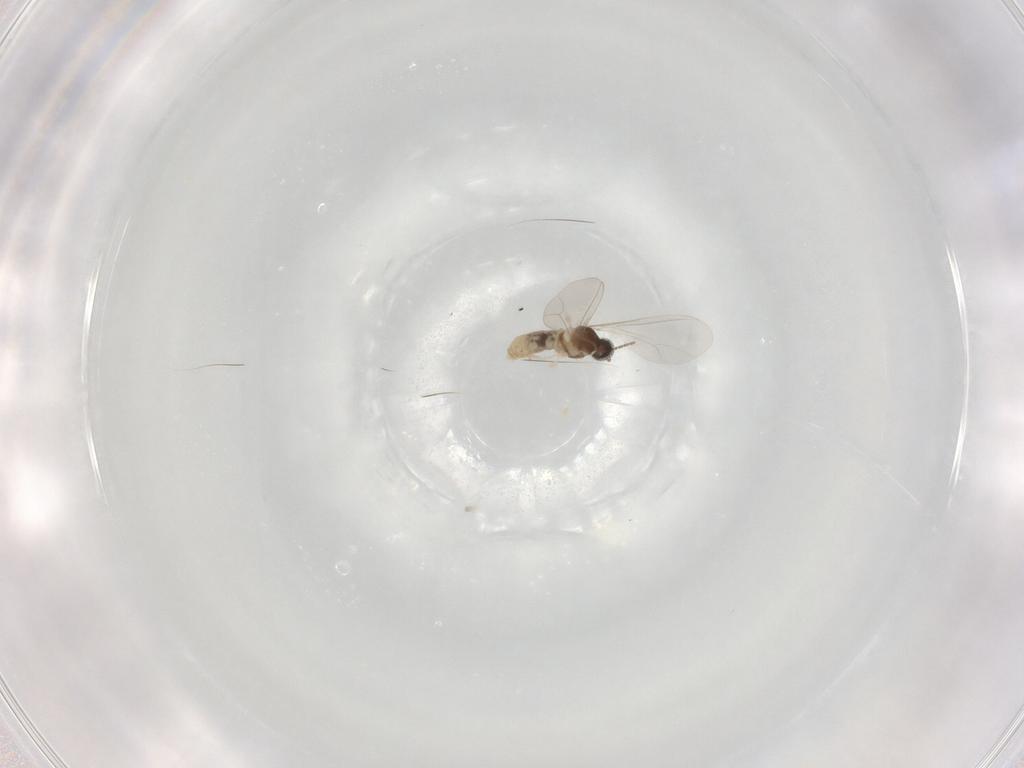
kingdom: Animalia
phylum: Arthropoda
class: Insecta
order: Diptera
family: Cecidomyiidae
